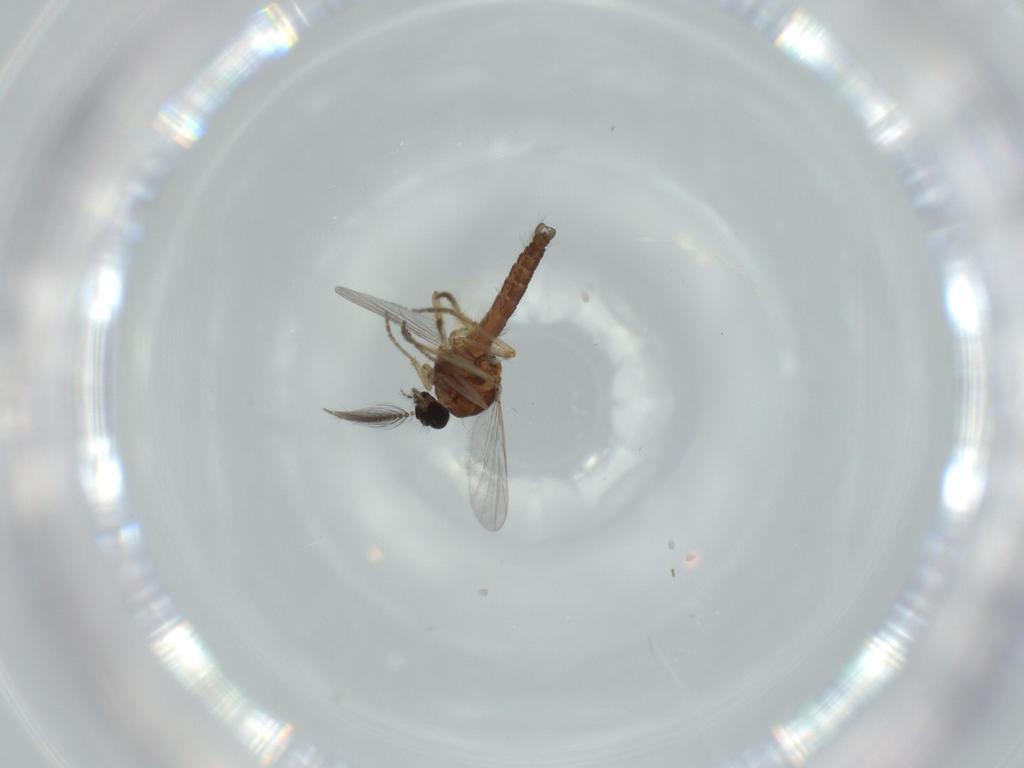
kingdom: Animalia
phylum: Arthropoda
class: Insecta
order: Diptera
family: Ceratopogonidae
